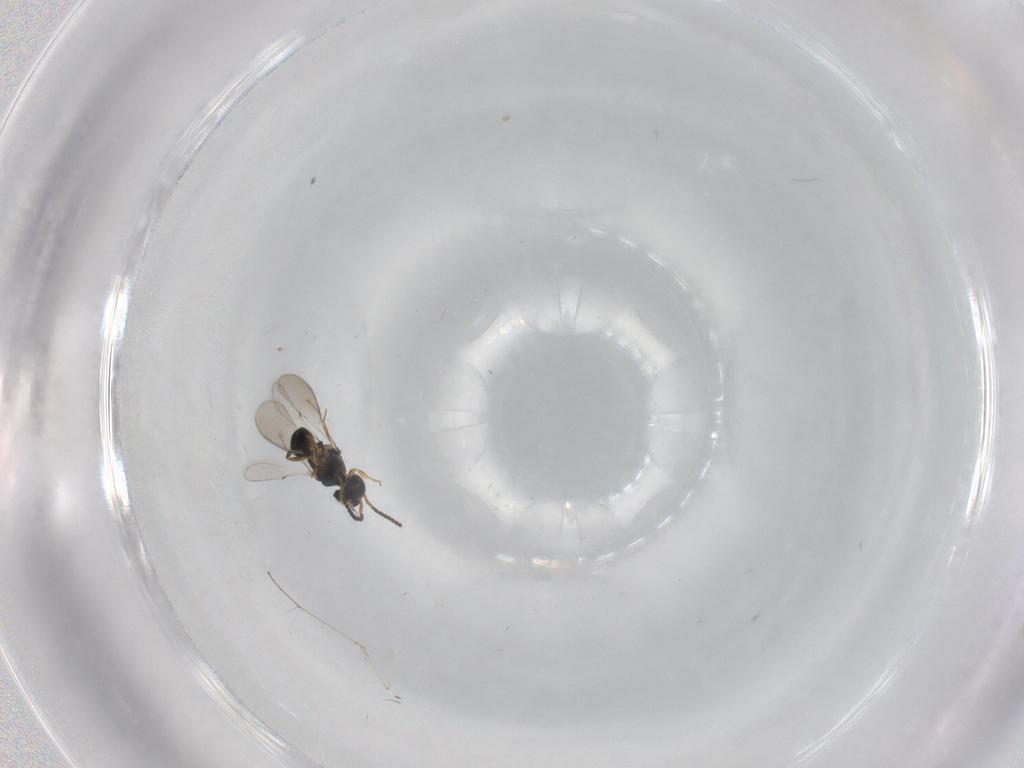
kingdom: Animalia
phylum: Arthropoda
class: Insecta
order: Hymenoptera
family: Scelionidae
